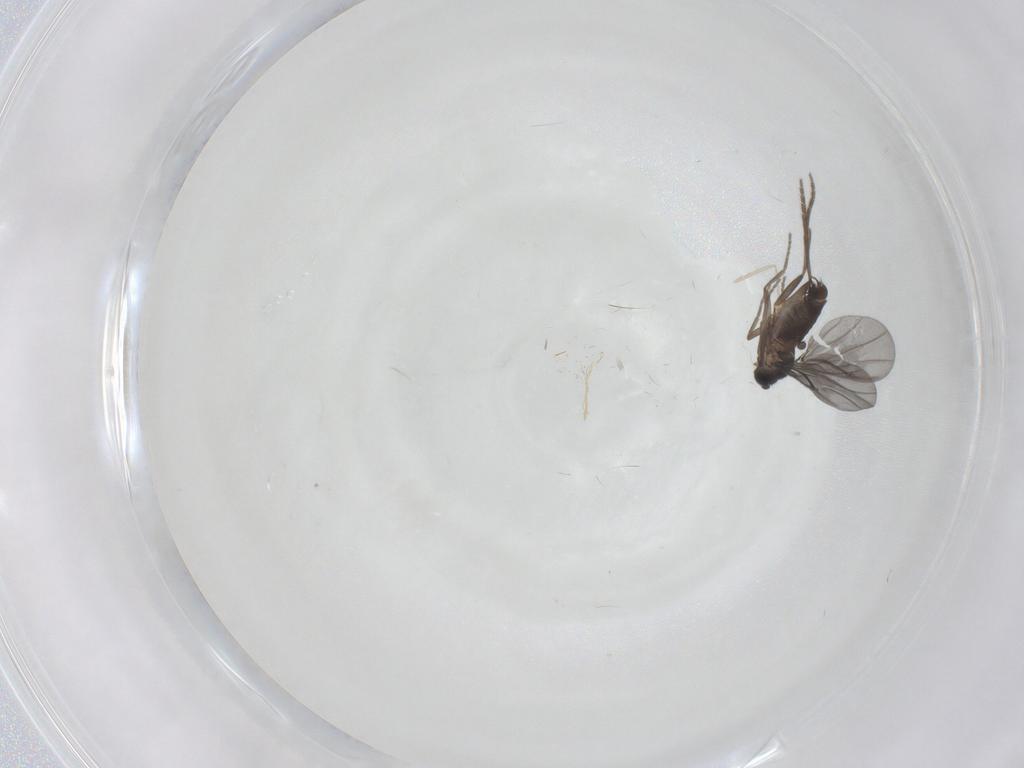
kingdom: Animalia
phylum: Arthropoda
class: Insecta
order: Diptera
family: Phoridae
